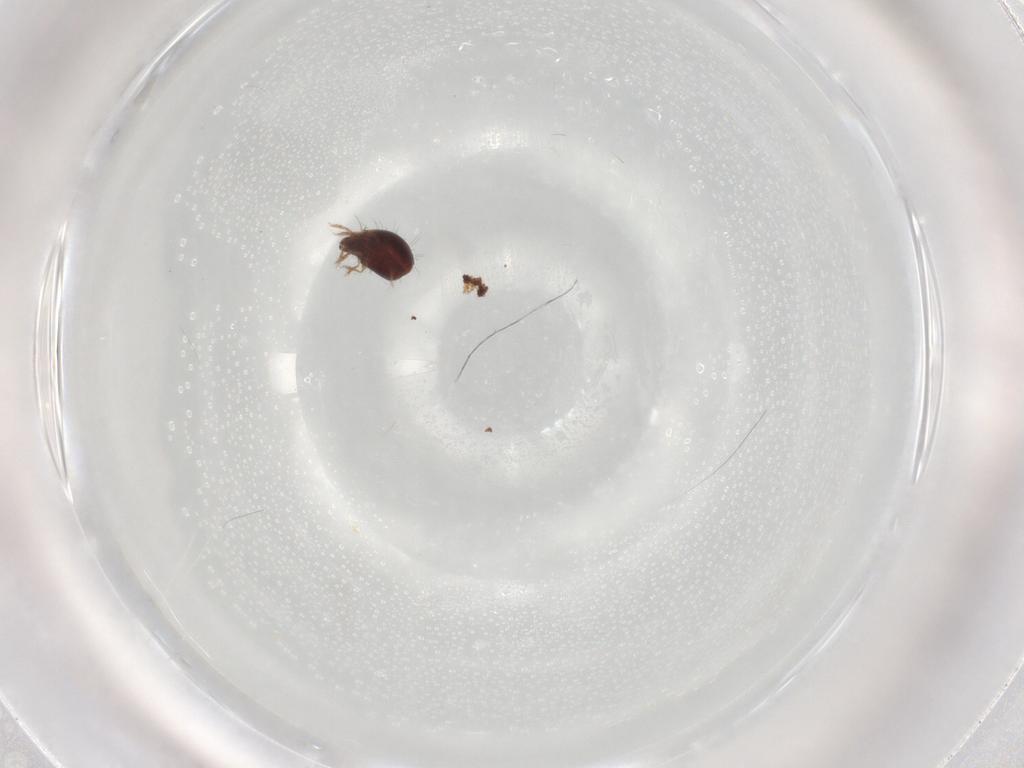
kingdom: Animalia
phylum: Arthropoda
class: Arachnida
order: Sarcoptiformes
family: Humerobatidae
